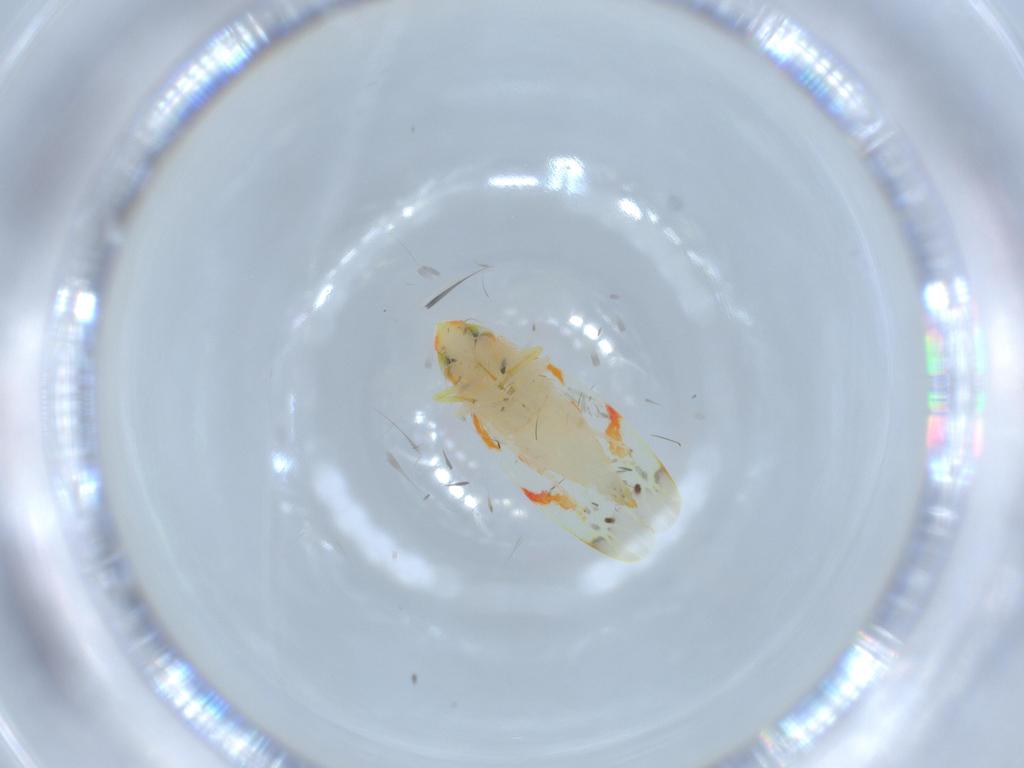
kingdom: Animalia
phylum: Arthropoda
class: Insecta
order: Hemiptera
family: Cicadellidae
